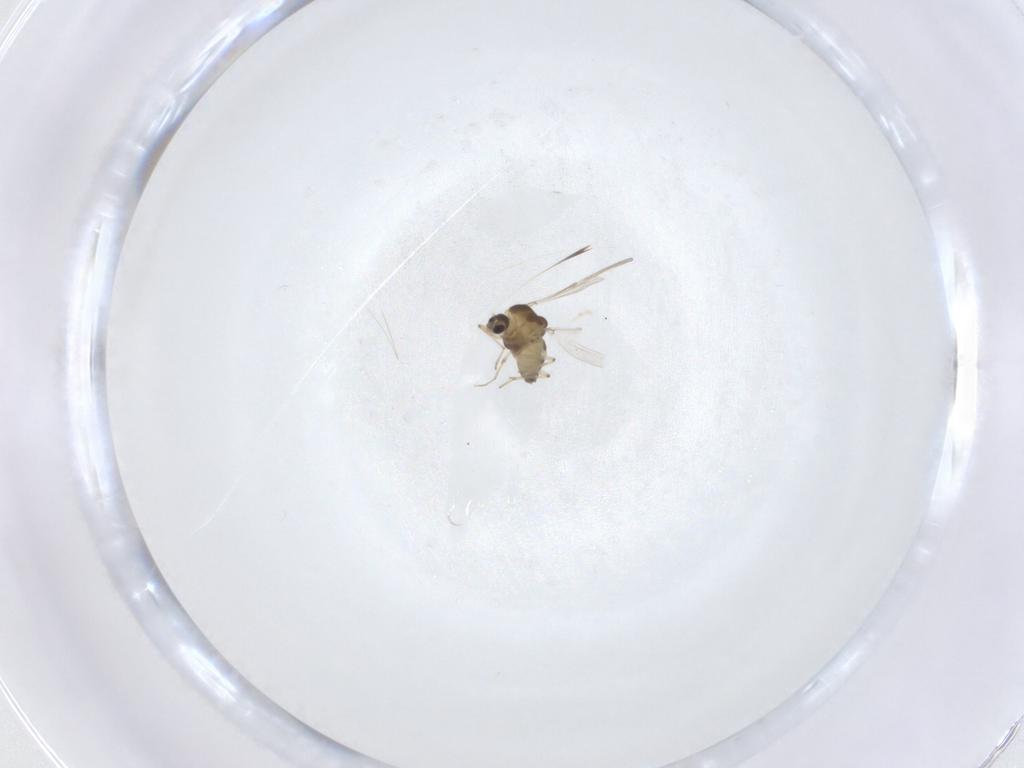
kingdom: Animalia
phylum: Arthropoda
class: Insecta
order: Diptera
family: Chironomidae
